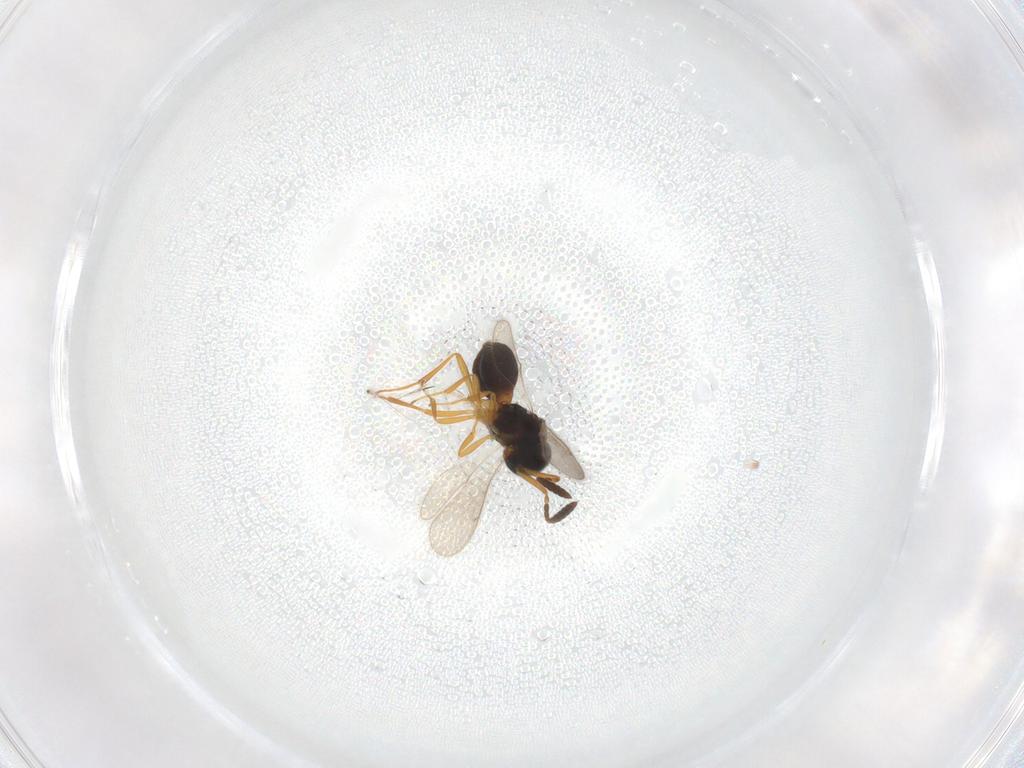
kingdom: Animalia
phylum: Arthropoda
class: Insecta
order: Hymenoptera
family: Scelionidae
